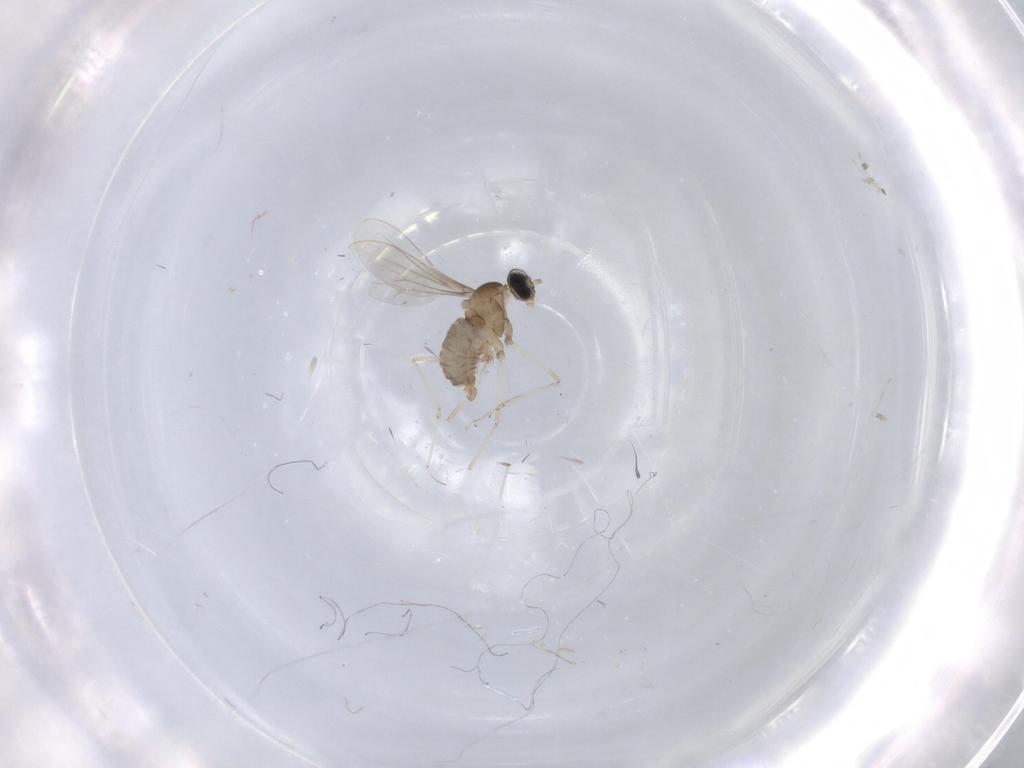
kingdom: Animalia
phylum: Arthropoda
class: Insecta
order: Diptera
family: Cecidomyiidae
